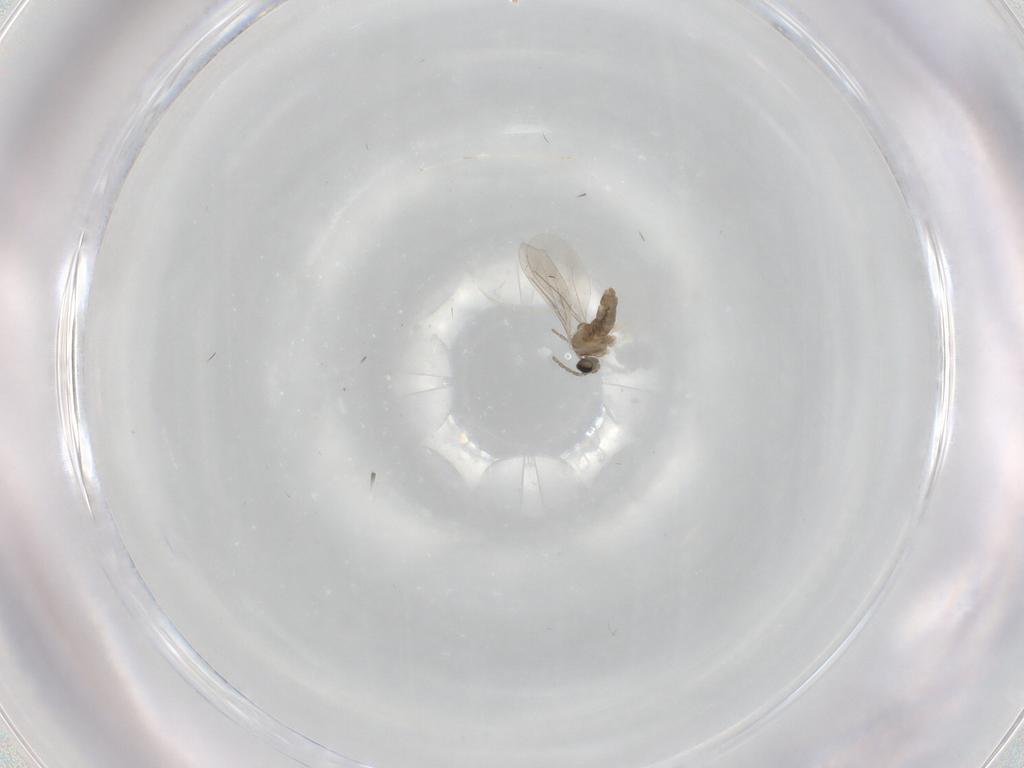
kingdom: Animalia
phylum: Arthropoda
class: Insecta
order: Diptera
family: Cecidomyiidae
